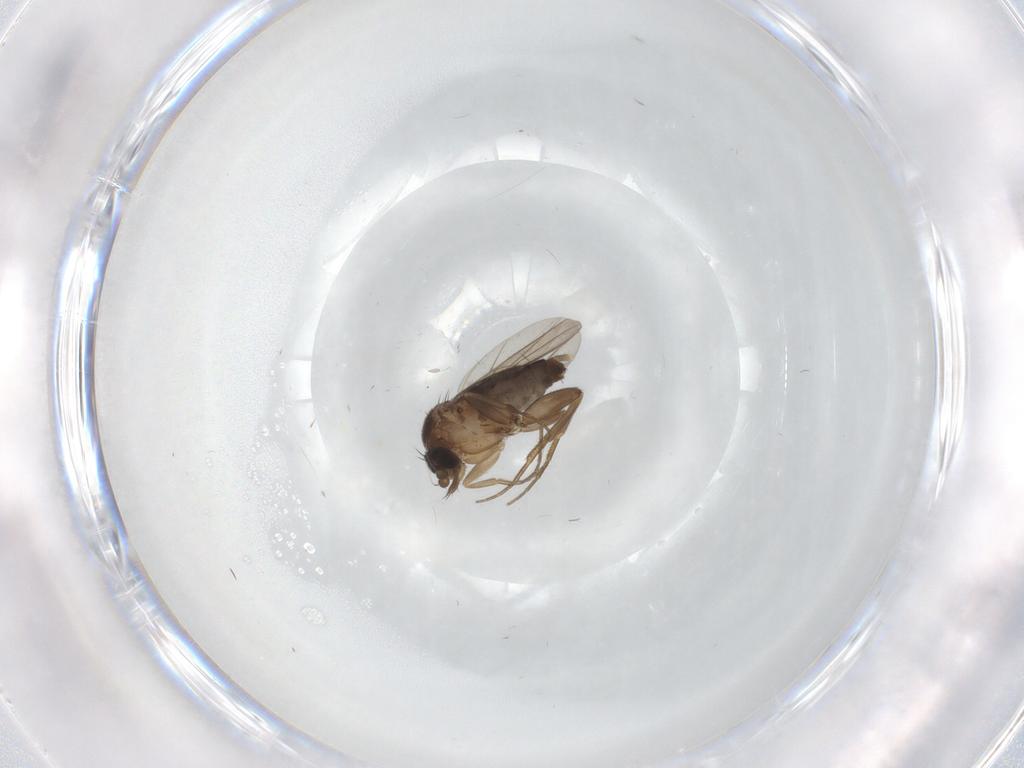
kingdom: Animalia
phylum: Arthropoda
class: Insecta
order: Diptera
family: Phoridae
